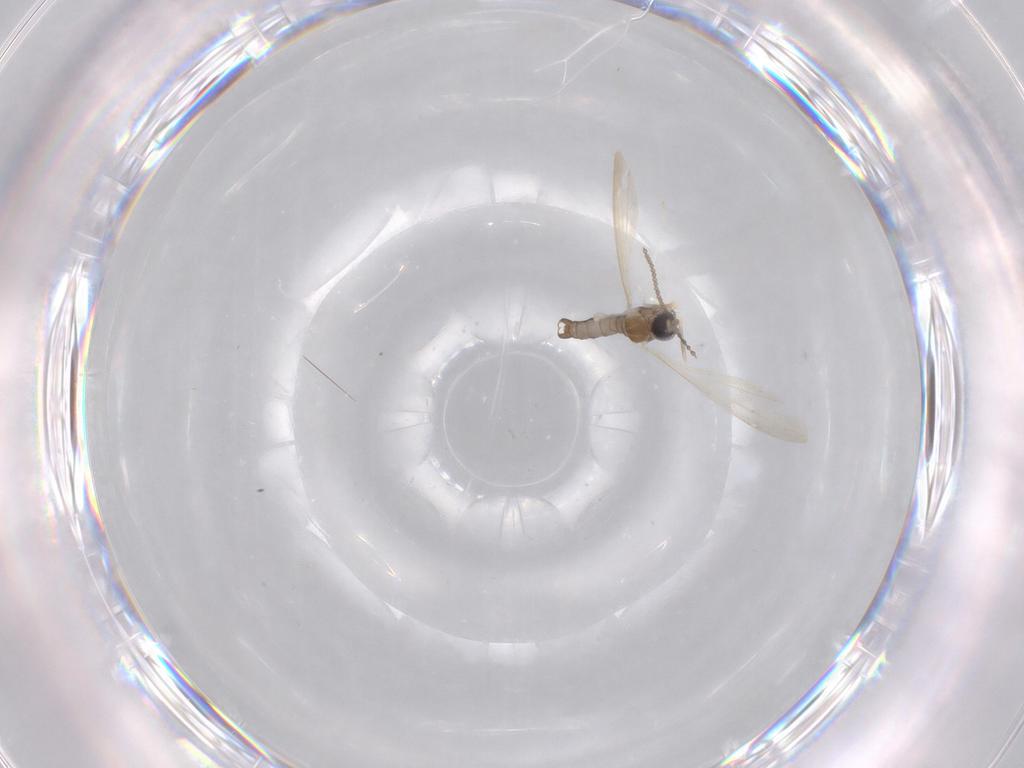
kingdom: Animalia
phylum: Arthropoda
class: Insecta
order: Diptera
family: Cecidomyiidae
